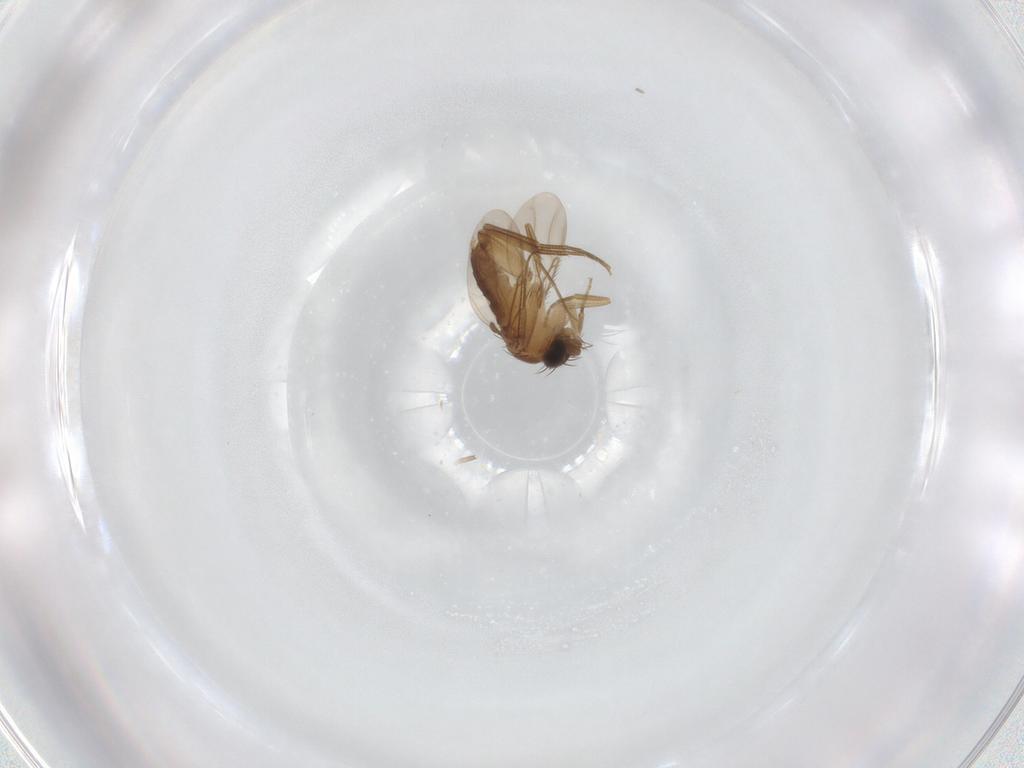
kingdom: Animalia
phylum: Arthropoda
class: Insecta
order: Diptera
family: Phoridae
